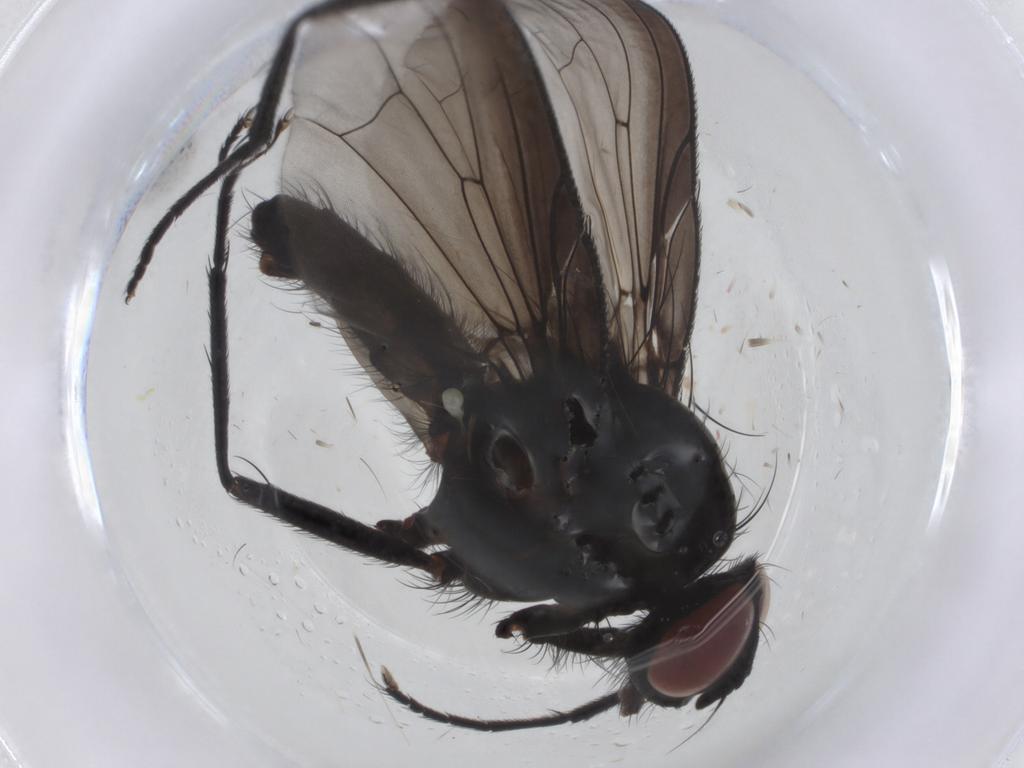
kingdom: Animalia
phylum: Arthropoda
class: Insecta
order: Diptera
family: Anthomyiidae
